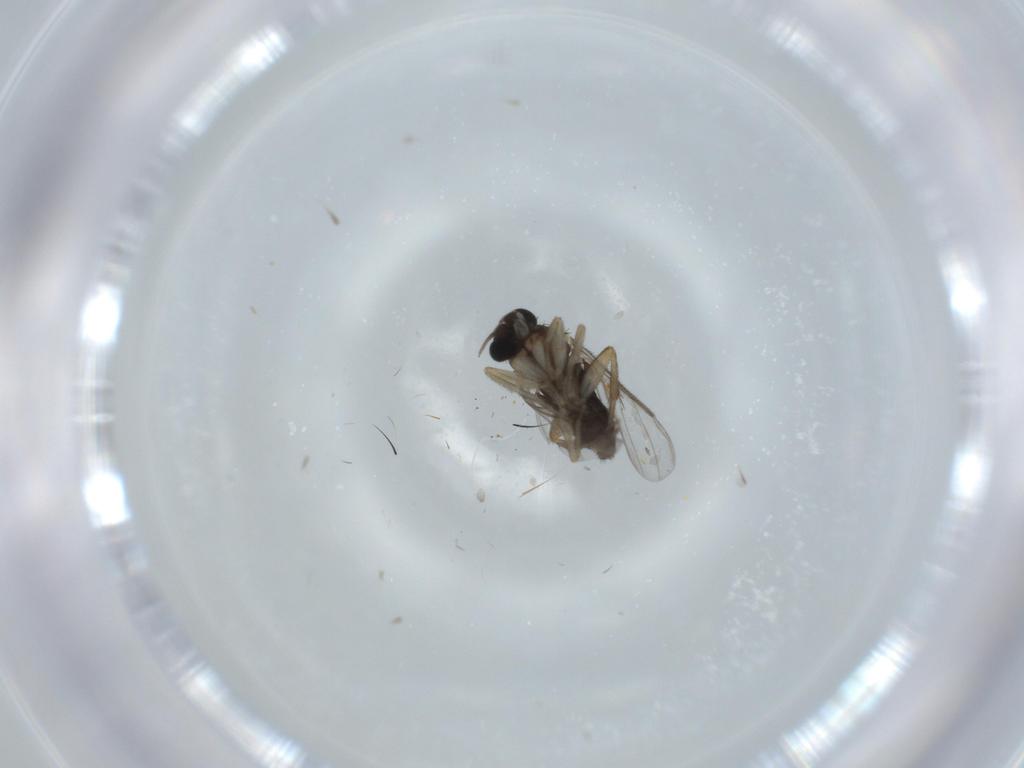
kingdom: Animalia
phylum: Arthropoda
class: Insecta
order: Diptera
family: Phoridae
